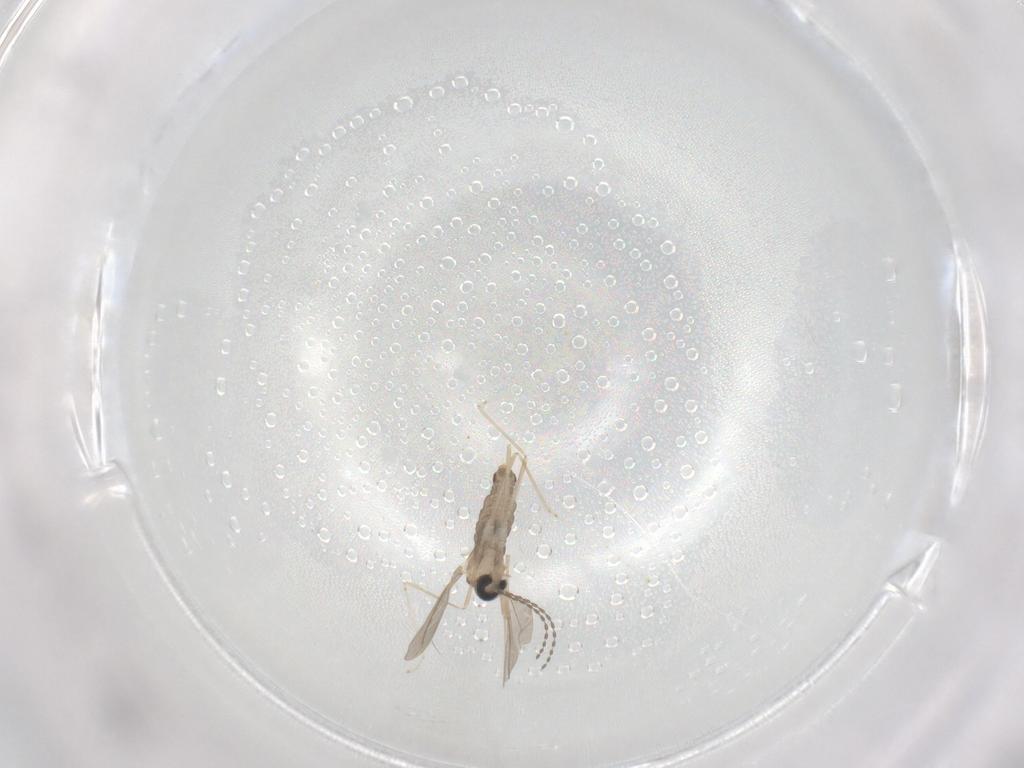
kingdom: Animalia
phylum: Arthropoda
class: Insecta
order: Diptera
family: Cecidomyiidae
